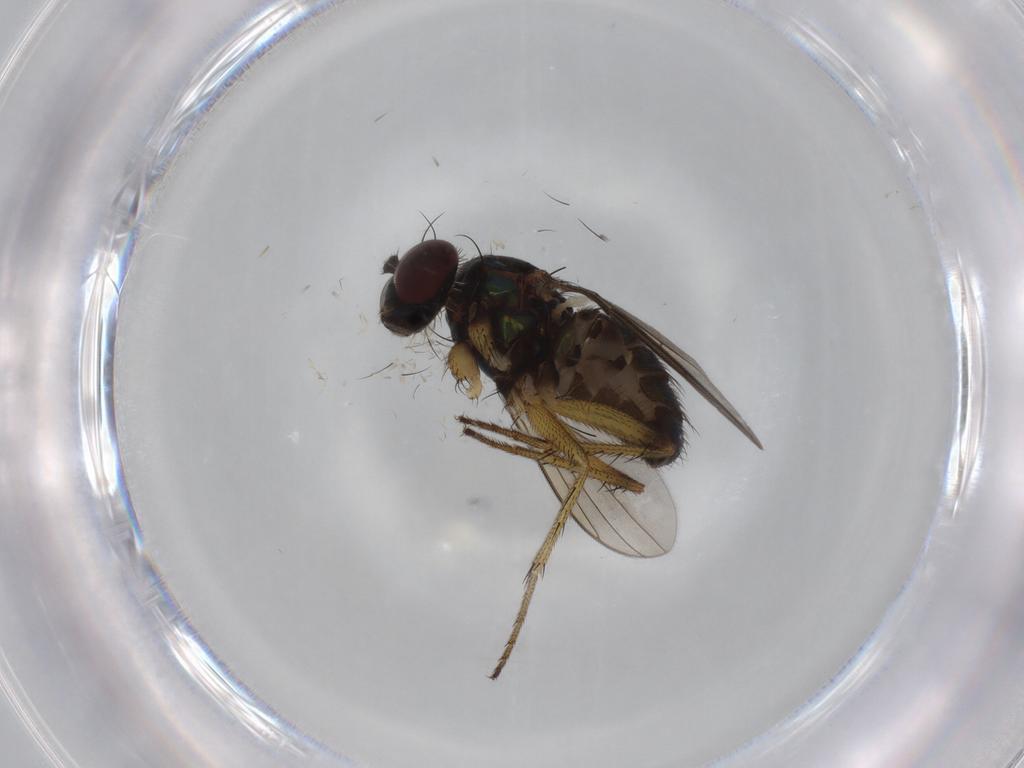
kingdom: Animalia
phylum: Arthropoda
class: Insecta
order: Diptera
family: Dolichopodidae
